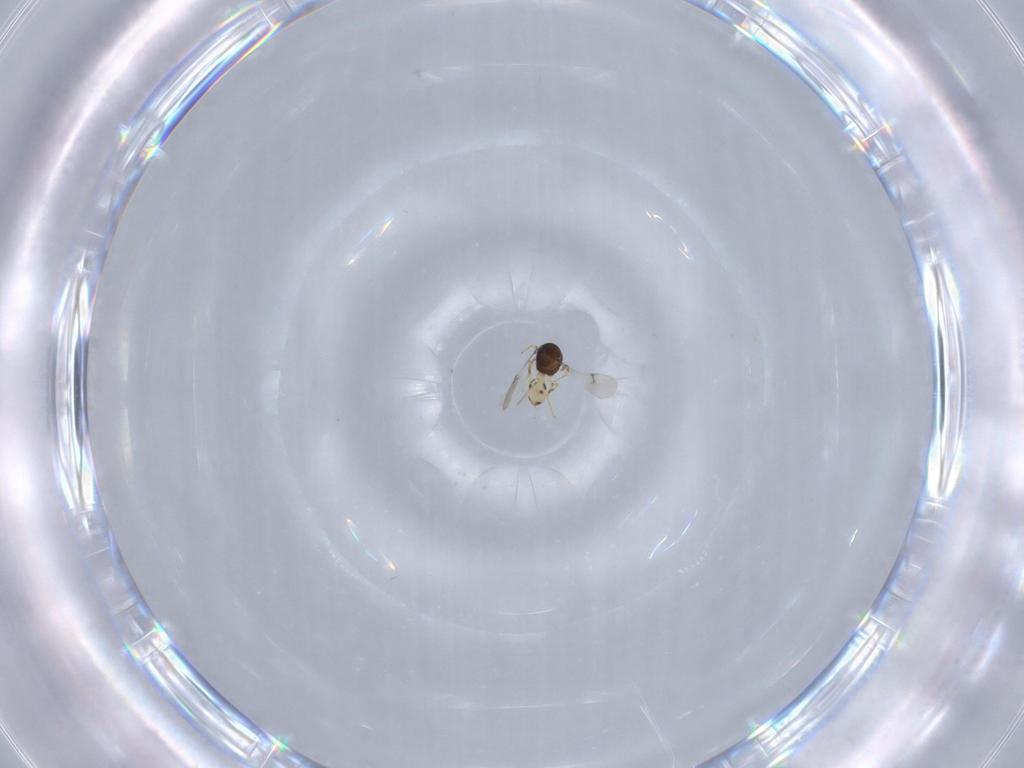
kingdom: Animalia
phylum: Arthropoda
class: Insecta
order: Hymenoptera
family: Scelionidae
